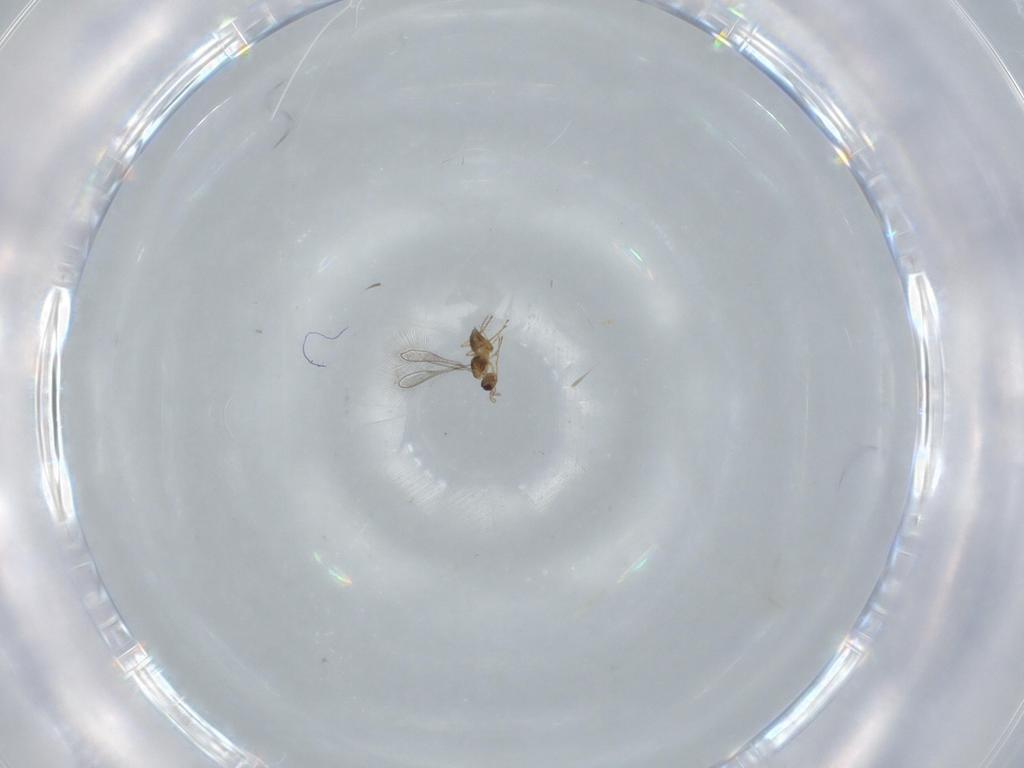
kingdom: Animalia
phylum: Arthropoda
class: Insecta
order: Hymenoptera
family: Mymaridae
